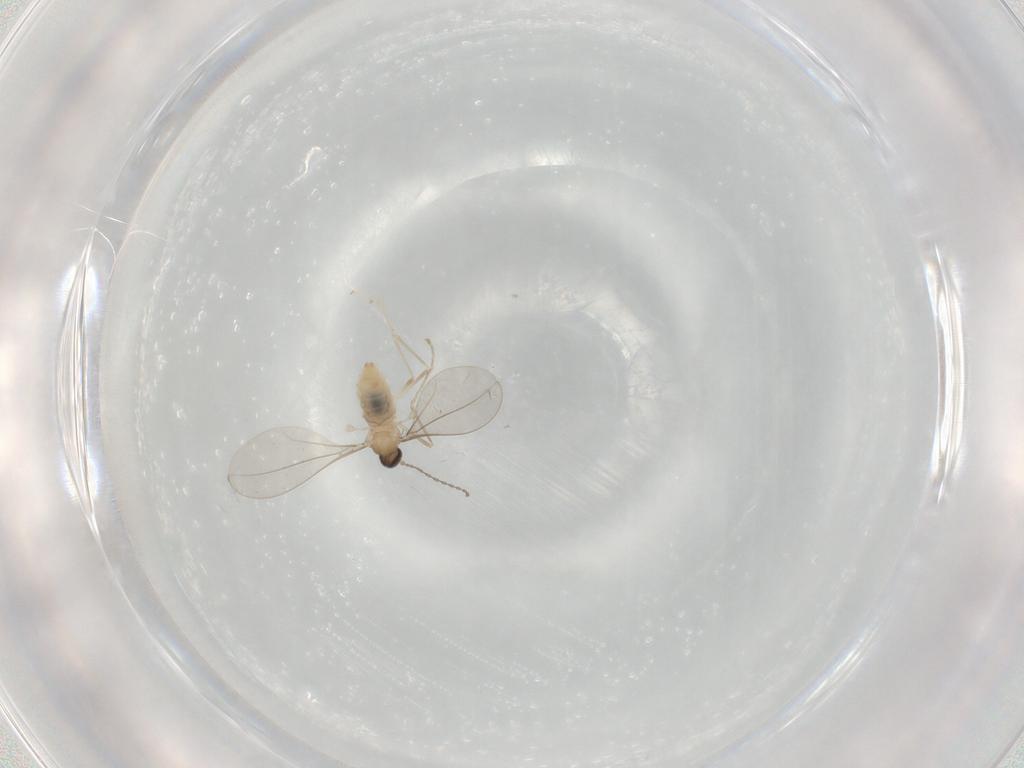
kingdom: Animalia
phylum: Arthropoda
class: Insecta
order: Diptera
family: Cecidomyiidae
